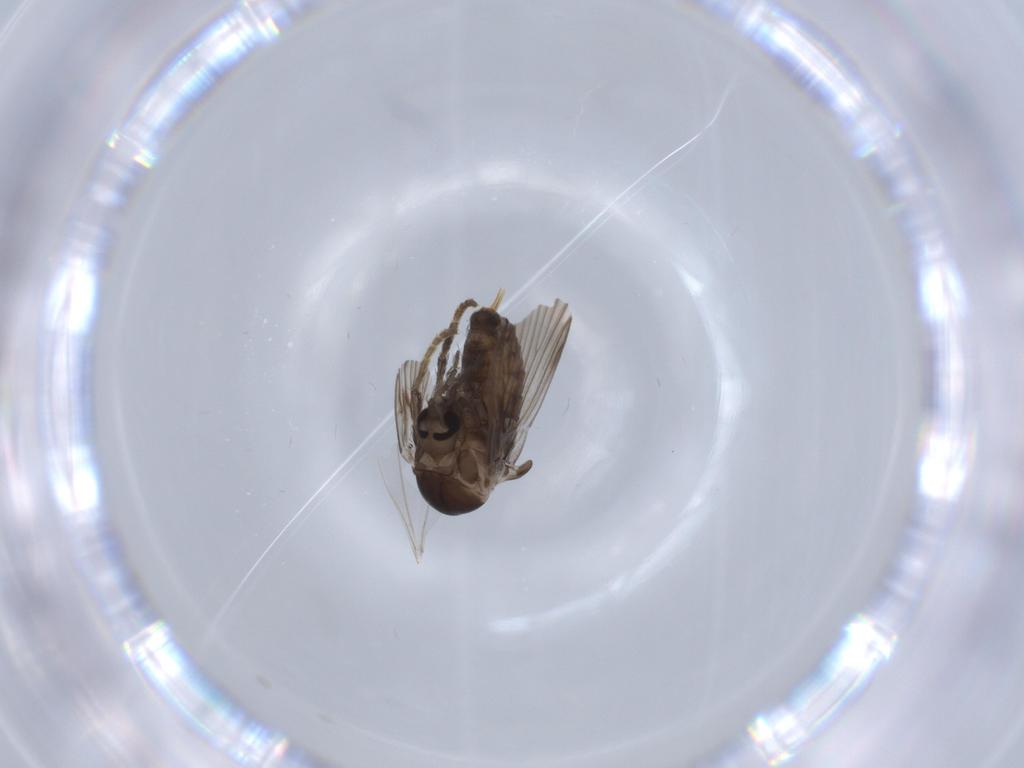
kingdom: Animalia
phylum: Arthropoda
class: Insecta
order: Diptera
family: Psychodidae
